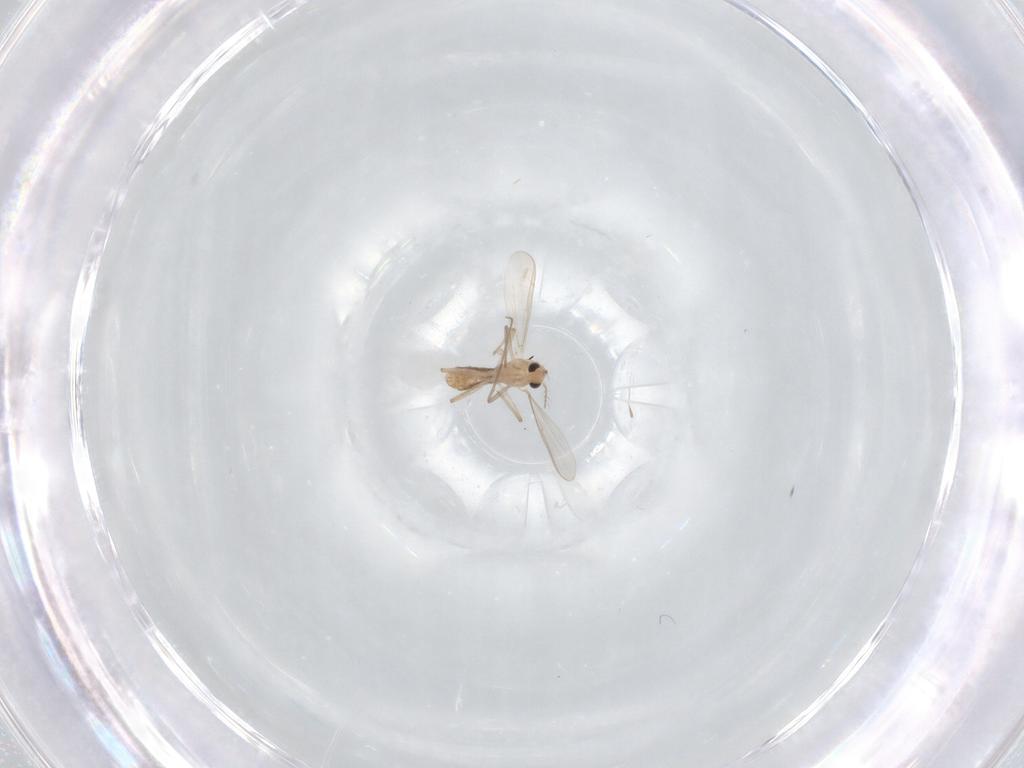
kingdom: Animalia
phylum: Arthropoda
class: Insecta
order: Diptera
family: Chironomidae
